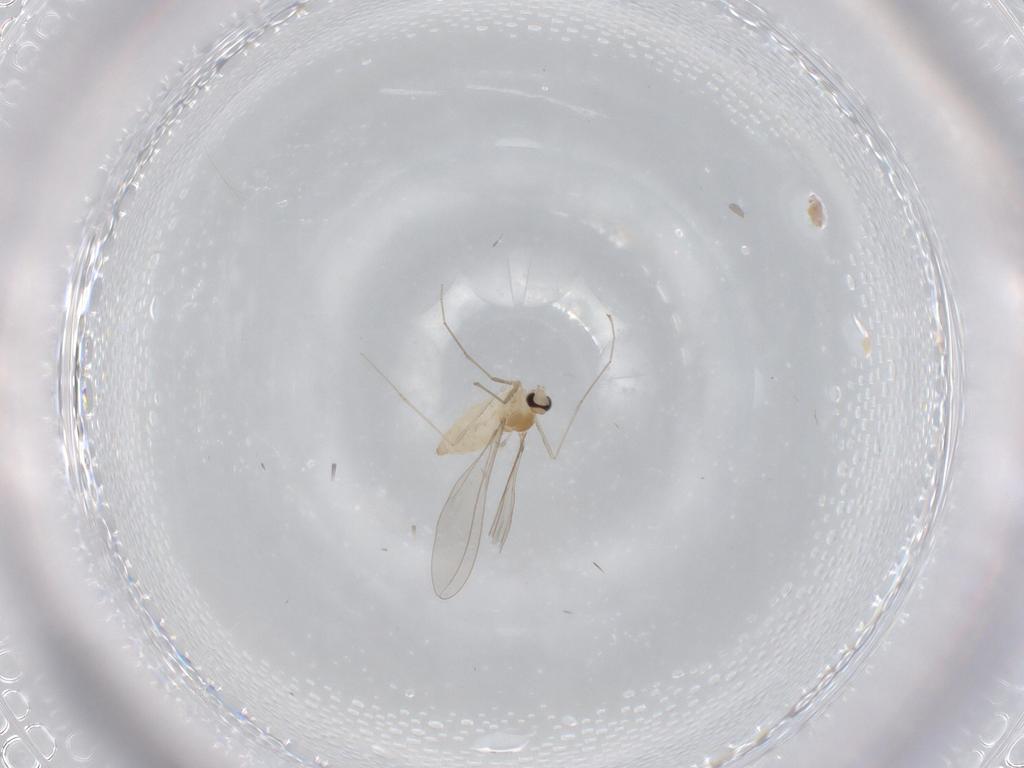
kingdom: Animalia
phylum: Arthropoda
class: Insecta
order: Diptera
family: Cecidomyiidae
